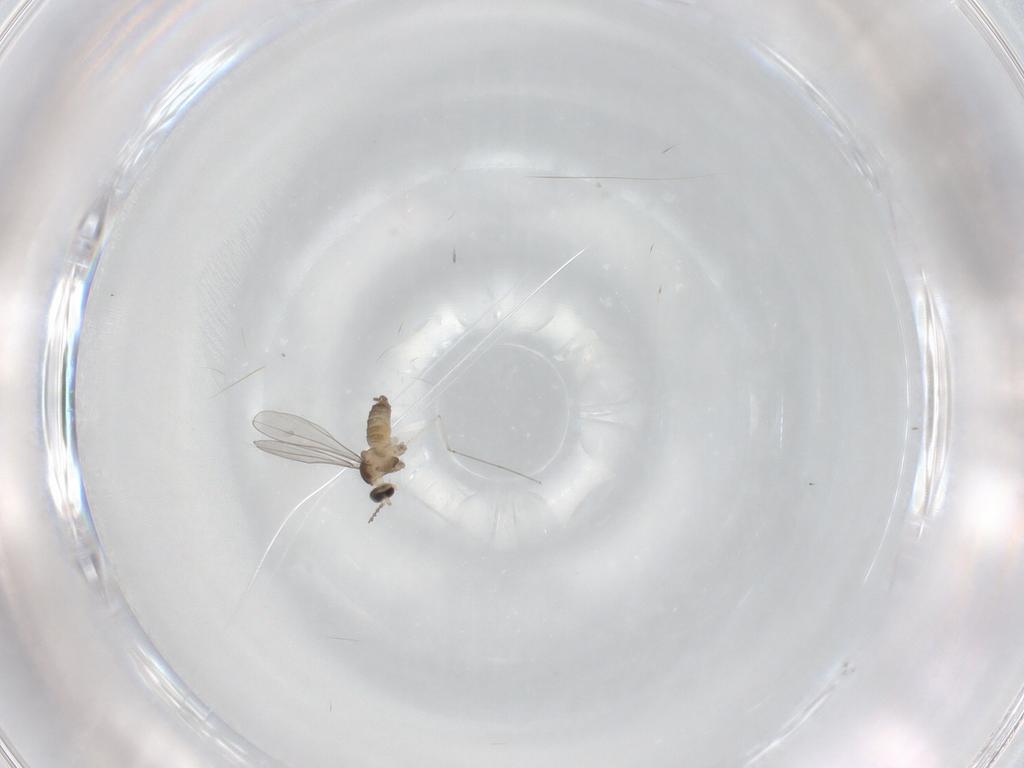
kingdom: Animalia
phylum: Arthropoda
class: Insecta
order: Diptera
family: Cecidomyiidae
